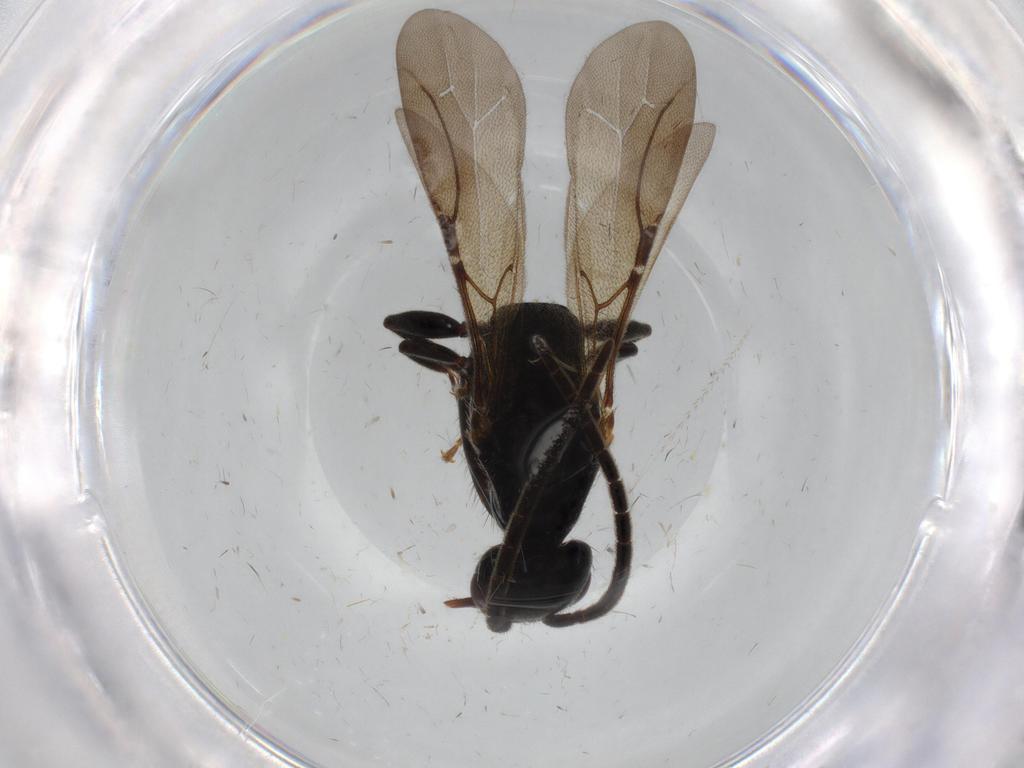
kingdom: Animalia
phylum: Arthropoda
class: Insecta
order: Hymenoptera
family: Bethylidae
